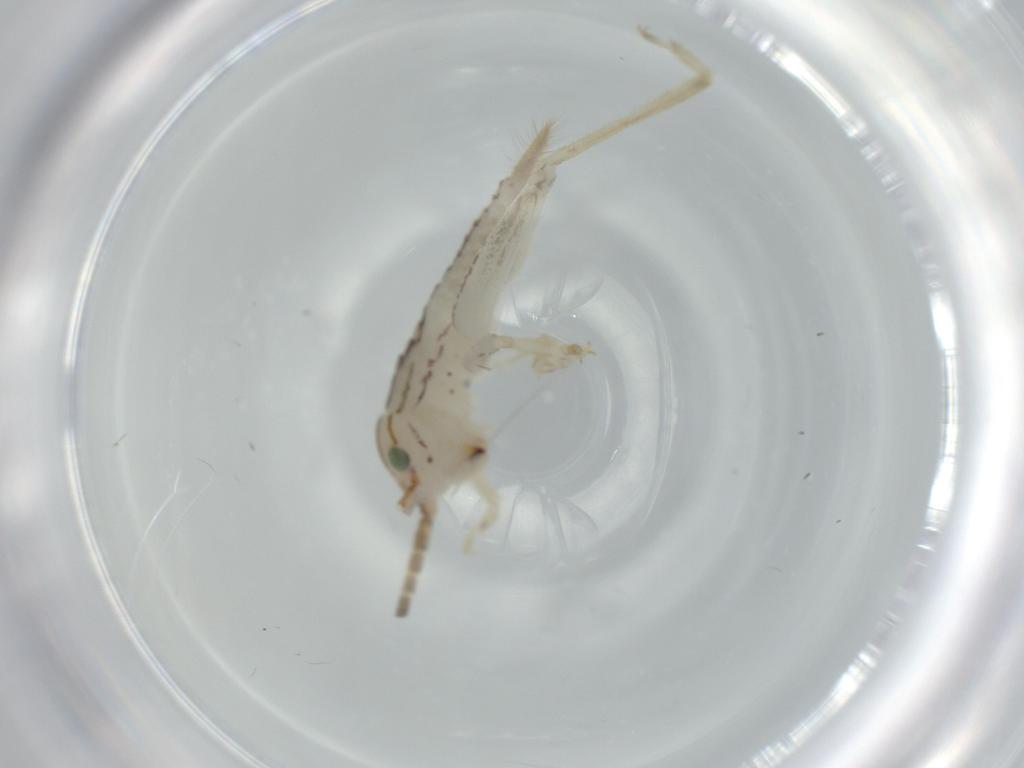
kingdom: Animalia
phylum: Arthropoda
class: Insecta
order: Orthoptera
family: Gryllidae
